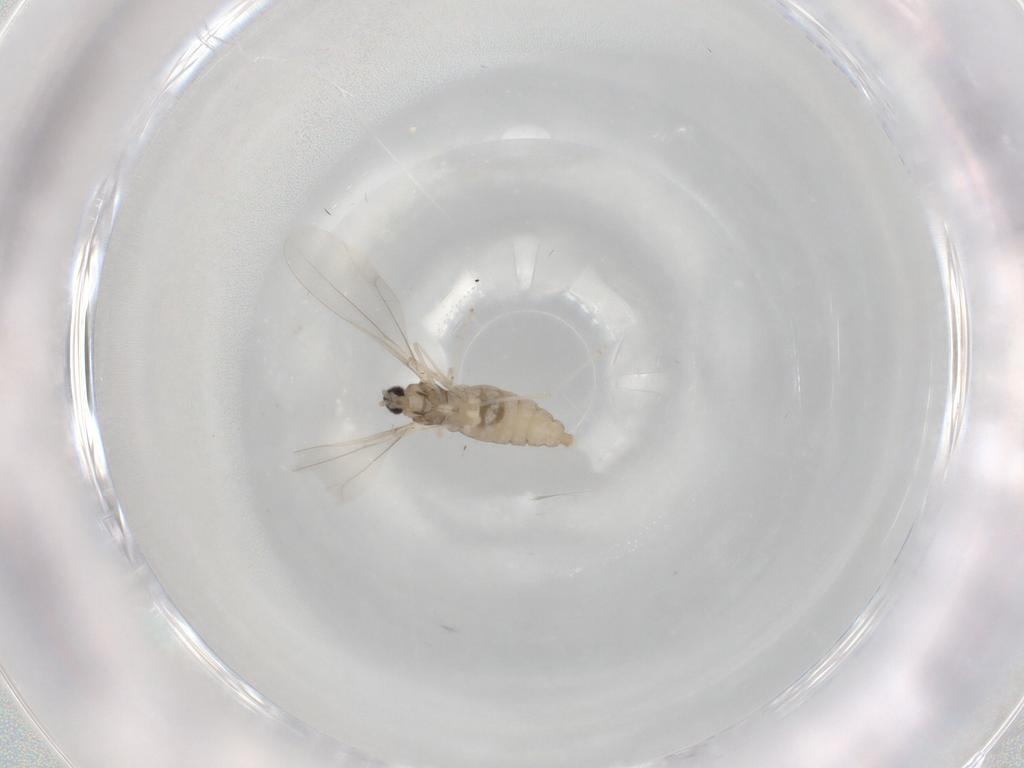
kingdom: Animalia
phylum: Arthropoda
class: Insecta
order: Diptera
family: Cecidomyiidae
